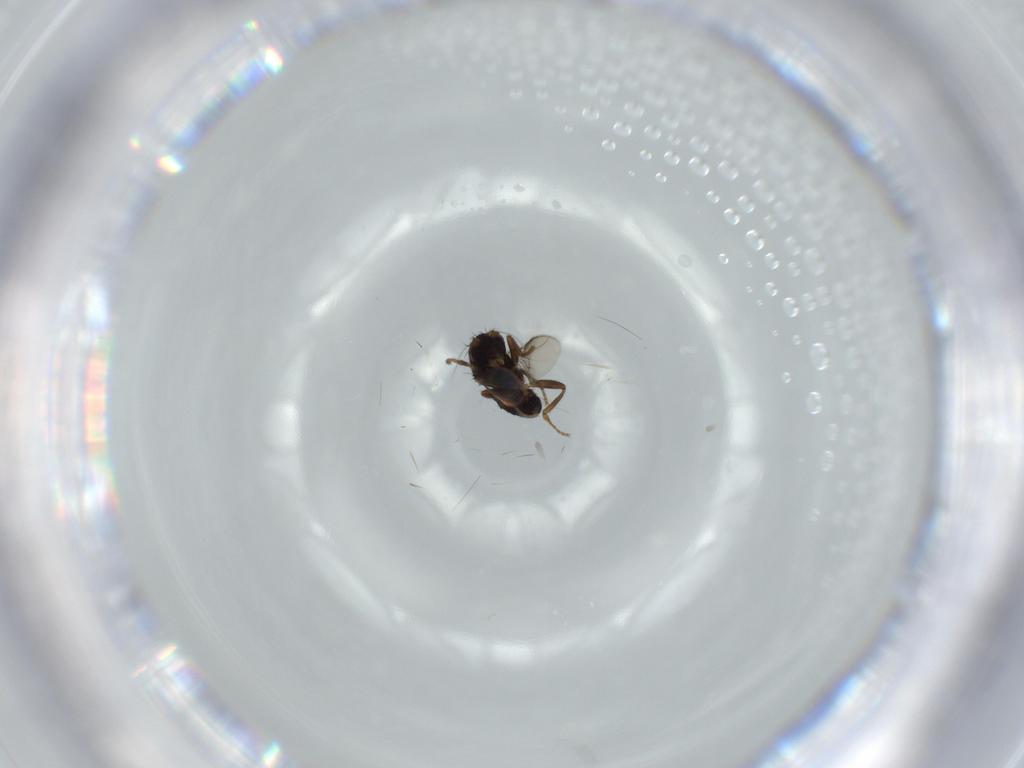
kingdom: Animalia
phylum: Arthropoda
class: Insecta
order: Diptera
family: Sphaeroceridae
